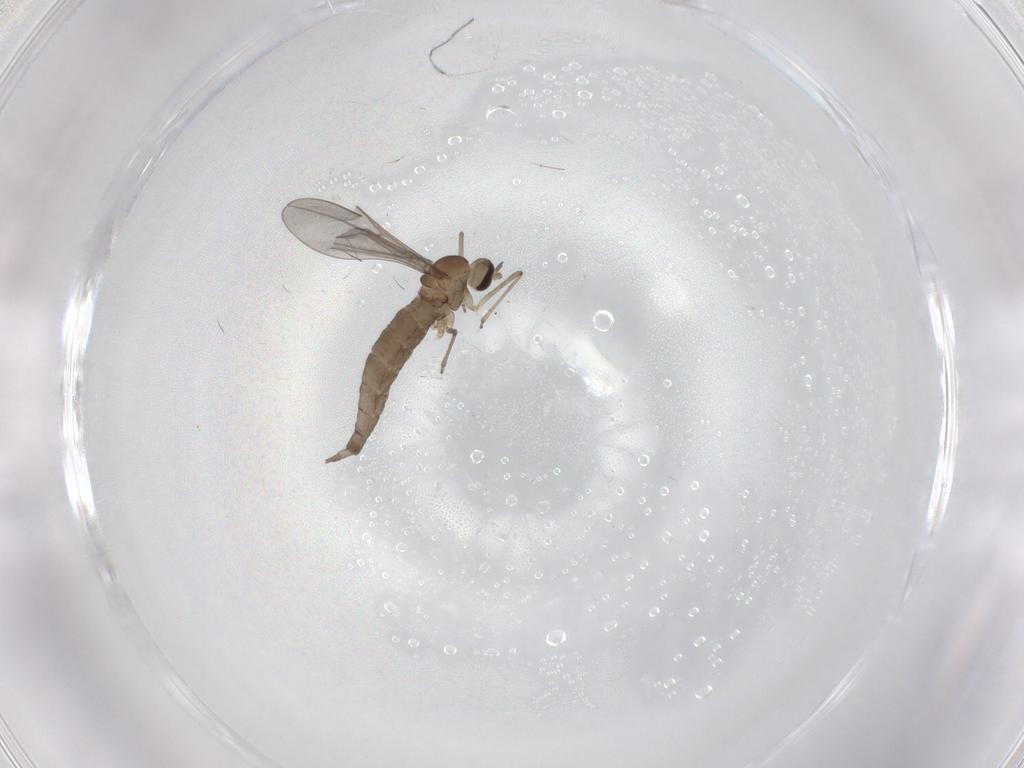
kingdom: Animalia
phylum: Arthropoda
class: Insecta
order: Diptera
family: Cecidomyiidae
